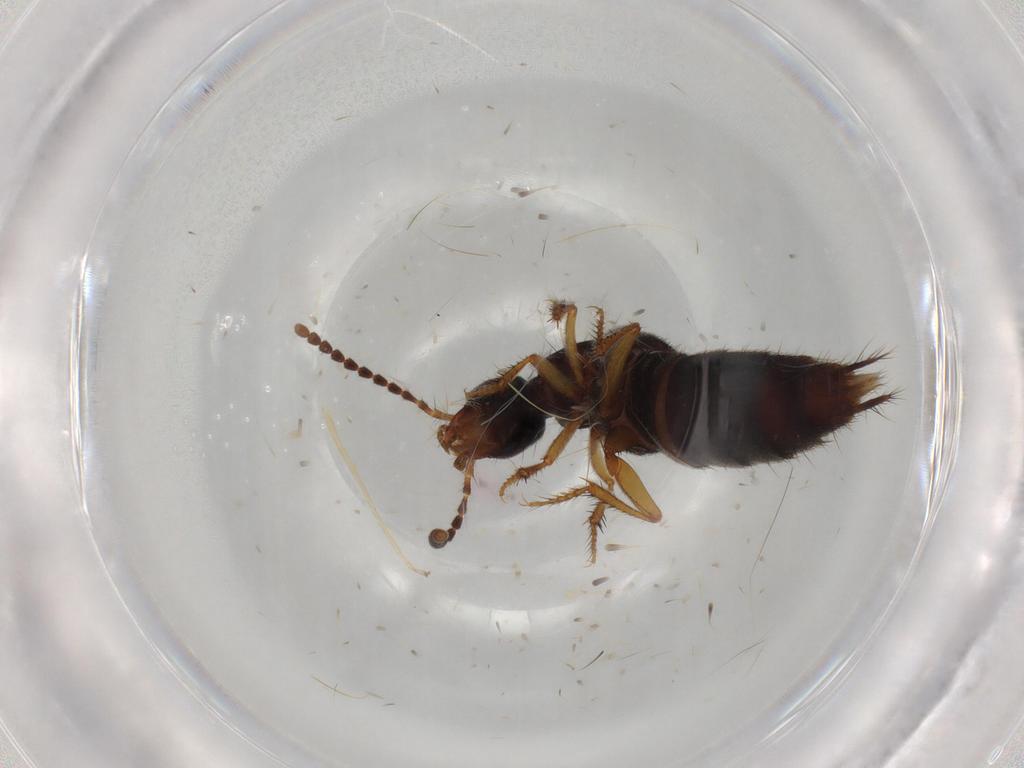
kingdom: Animalia
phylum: Arthropoda
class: Insecta
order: Coleoptera
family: Staphylinidae
